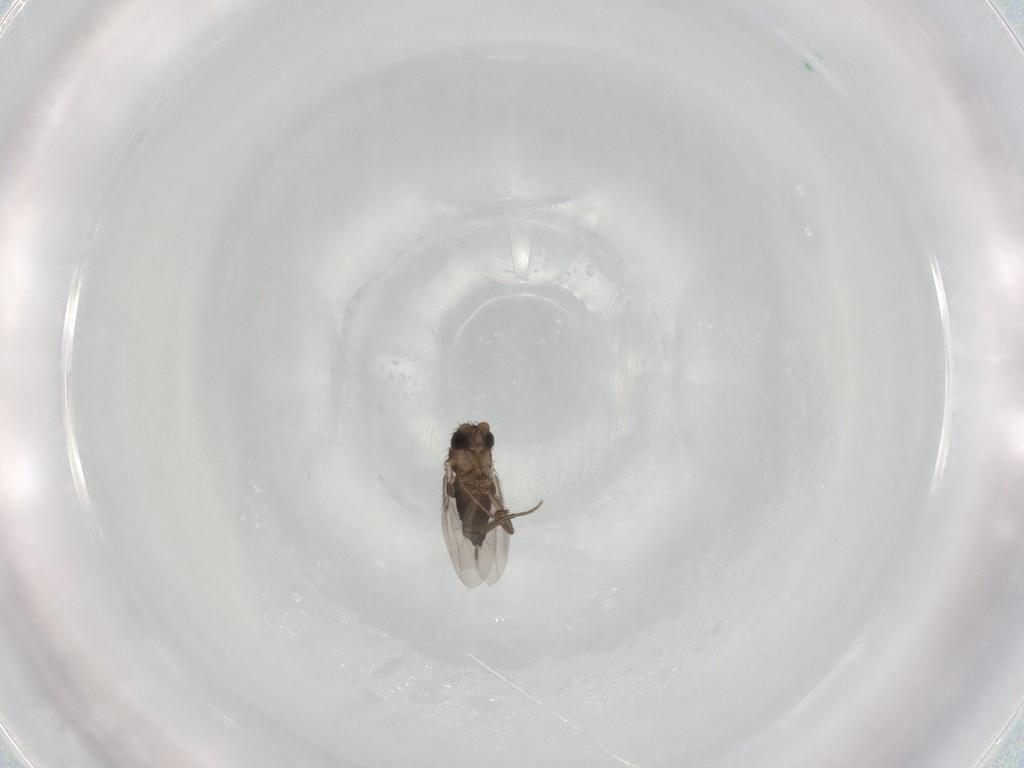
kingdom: Animalia
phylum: Arthropoda
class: Insecta
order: Diptera
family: Phoridae
